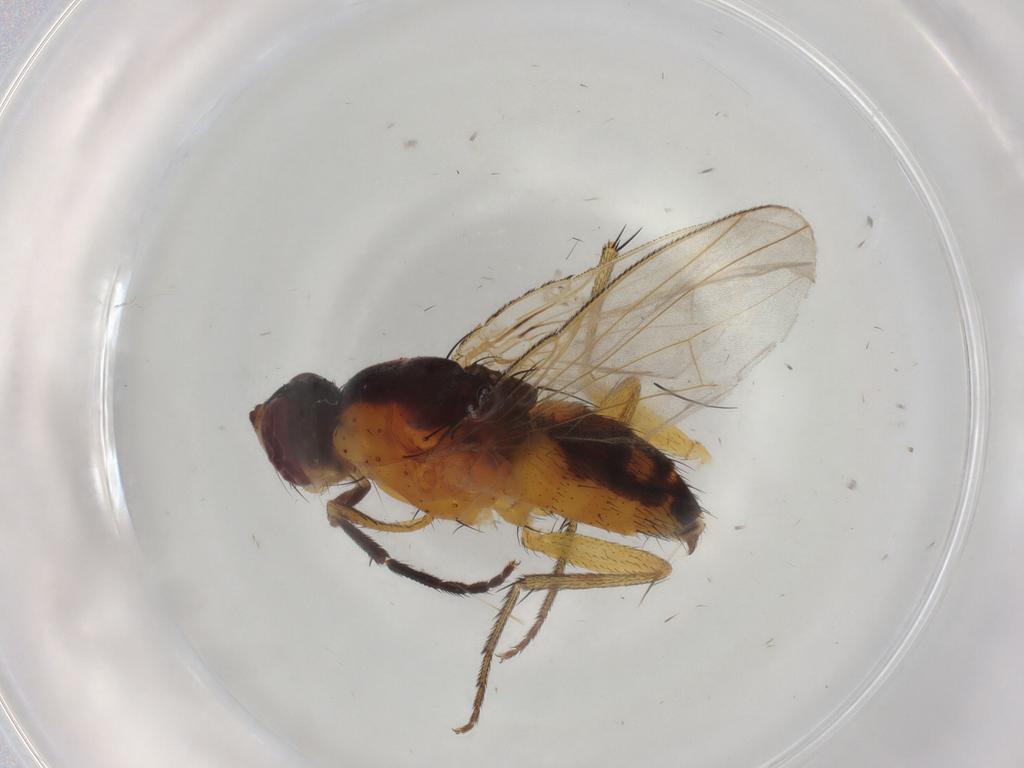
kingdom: Animalia
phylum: Arthropoda
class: Insecta
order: Diptera
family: Muscidae
